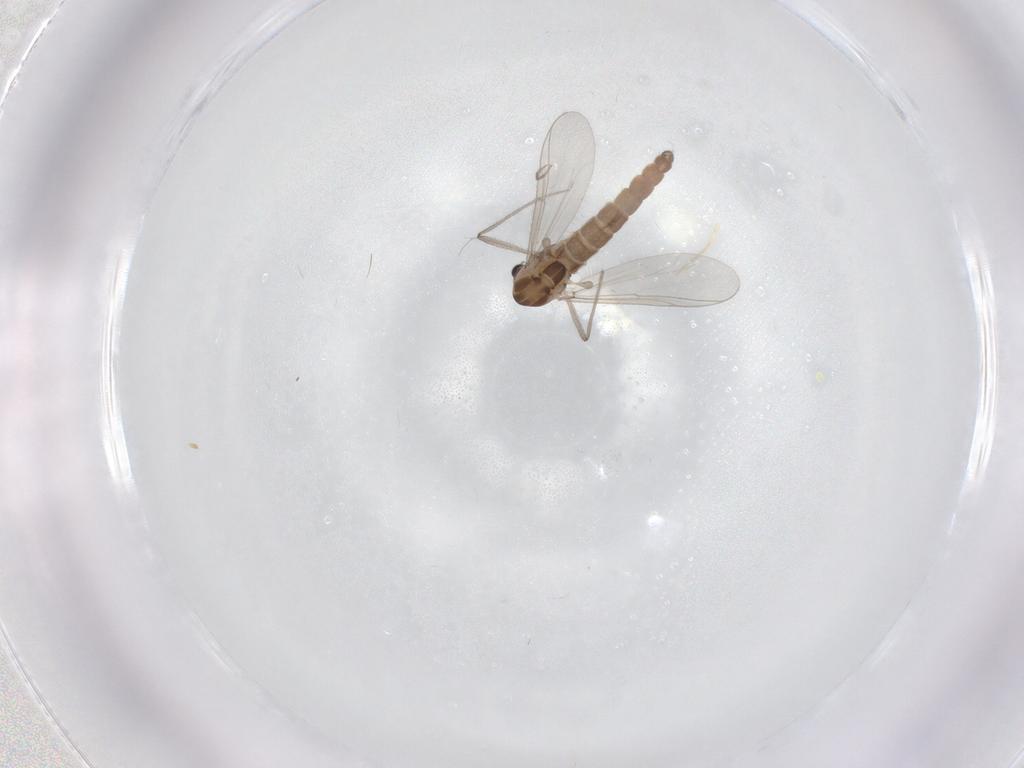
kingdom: Animalia
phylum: Arthropoda
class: Insecta
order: Diptera
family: Chironomidae
